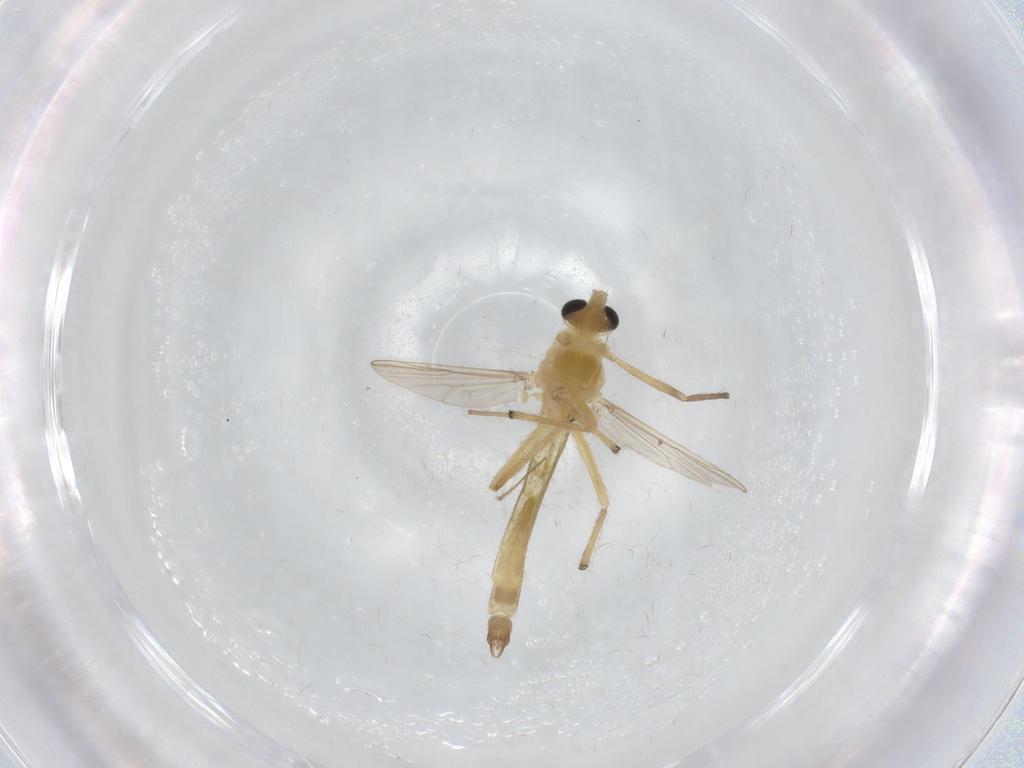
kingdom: Animalia
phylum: Arthropoda
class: Insecta
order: Diptera
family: Chironomidae
